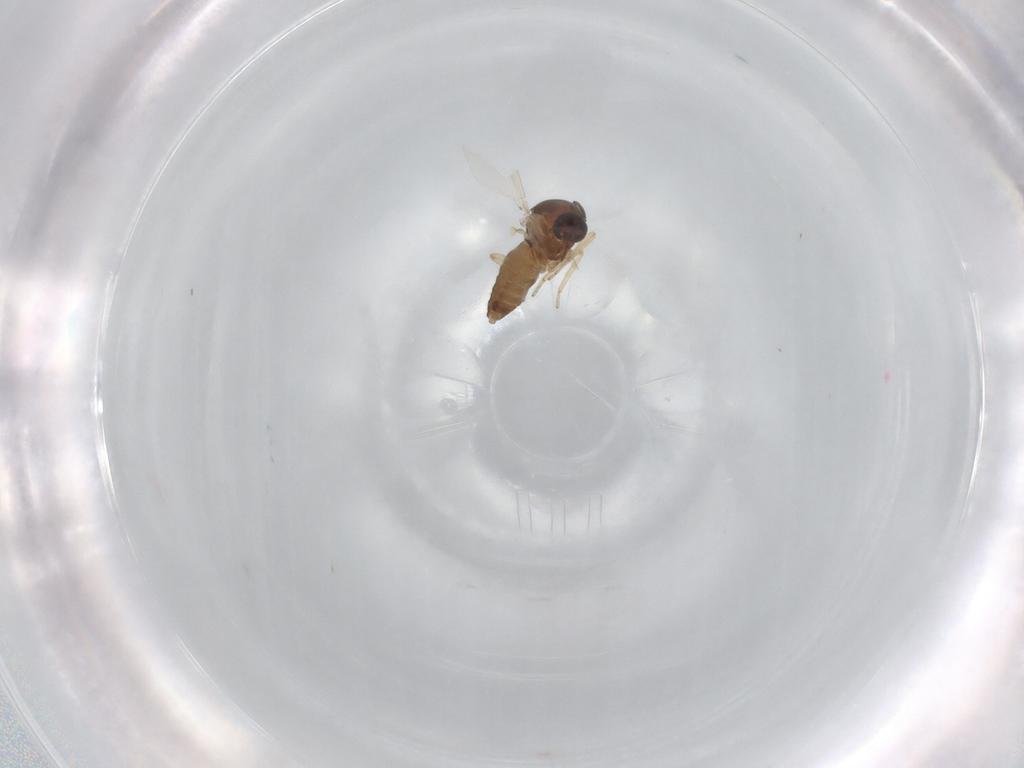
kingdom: Animalia
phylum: Arthropoda
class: Insecta
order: Diptera
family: Ceratopogonidae
